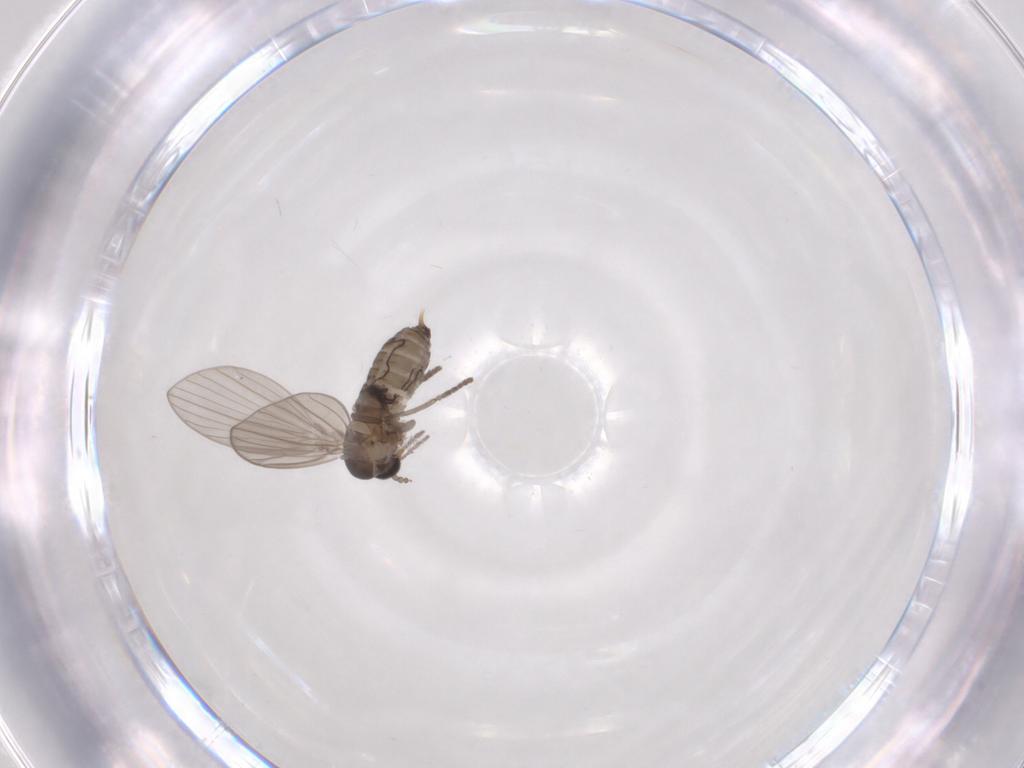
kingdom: Animalia
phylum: Arthropoda
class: Insecta
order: Diptera
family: Psychodidae
